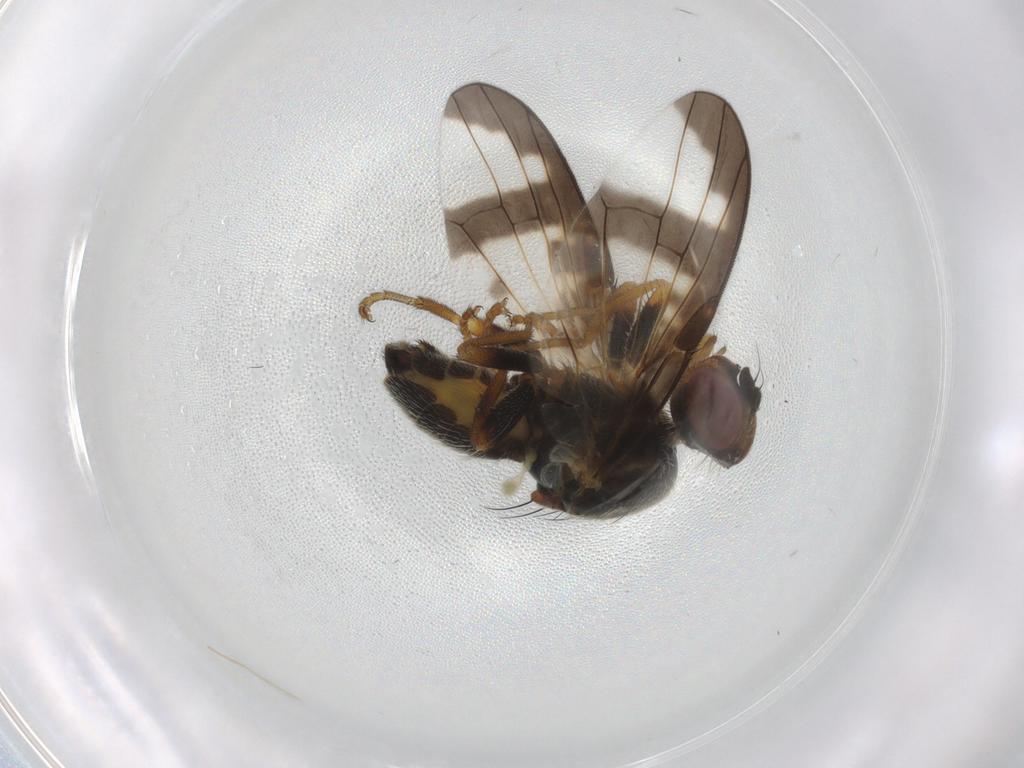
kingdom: Animalia
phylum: Arthropoda
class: Insecta
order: Diptera
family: Tephritidae
